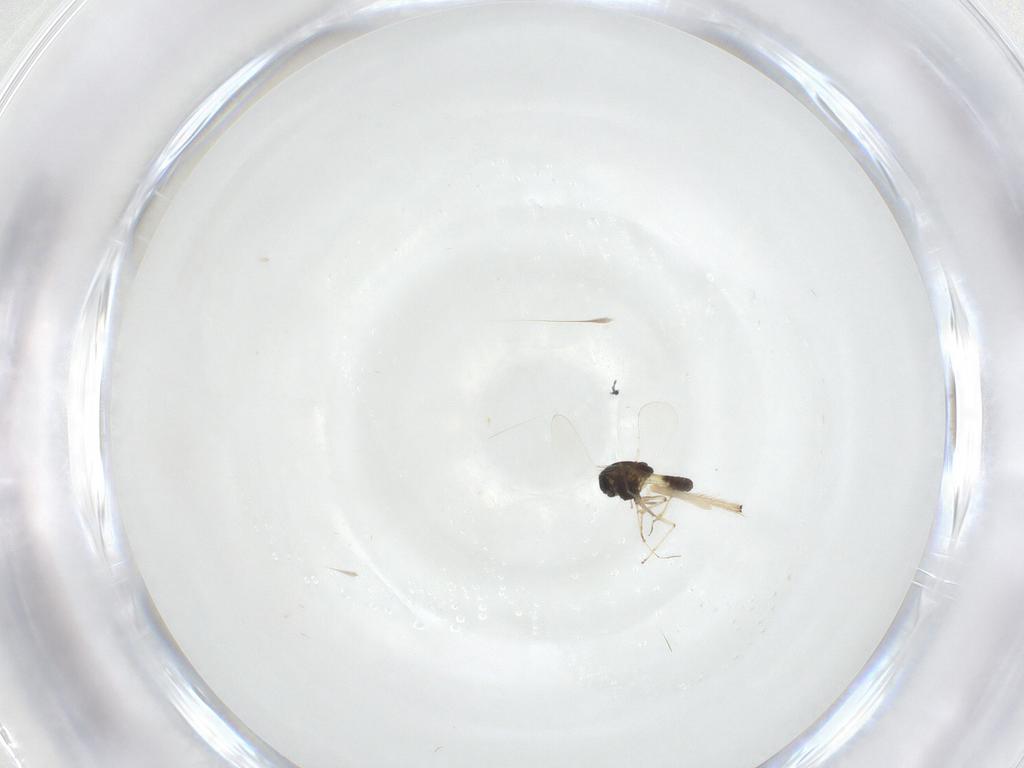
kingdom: Animalia
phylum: Arthropoda
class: Insecta
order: Diptera
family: Chironomidae
